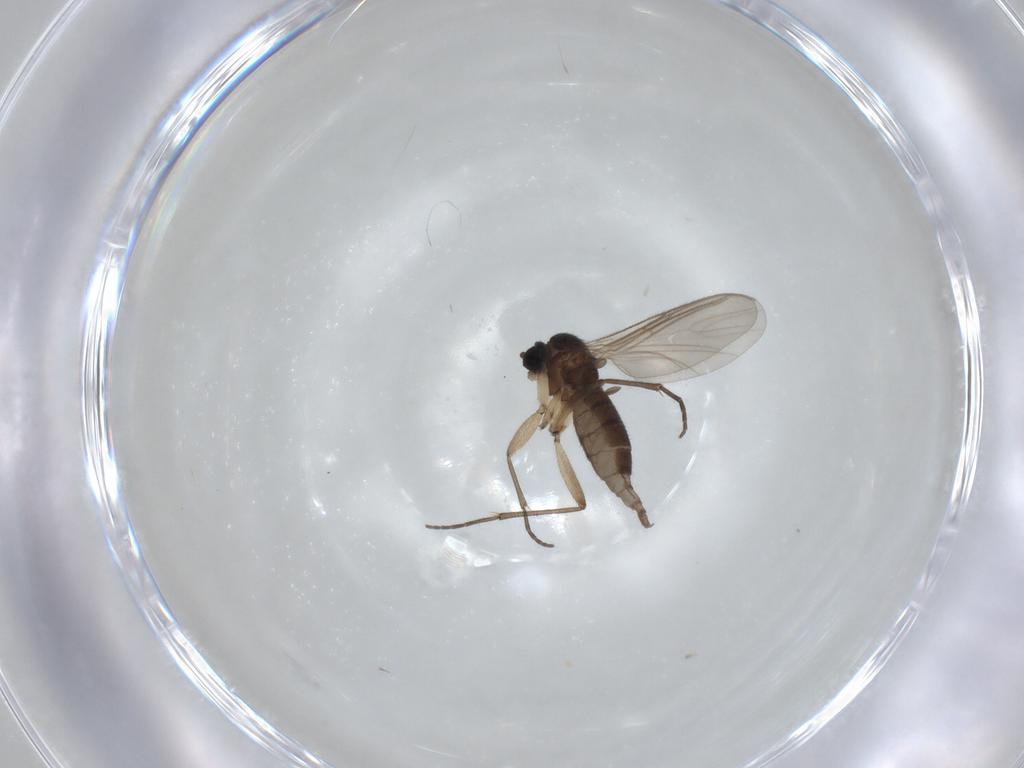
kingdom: Animalia
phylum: Arthropoda
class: Insecta
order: Diptera
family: Sciaridae
